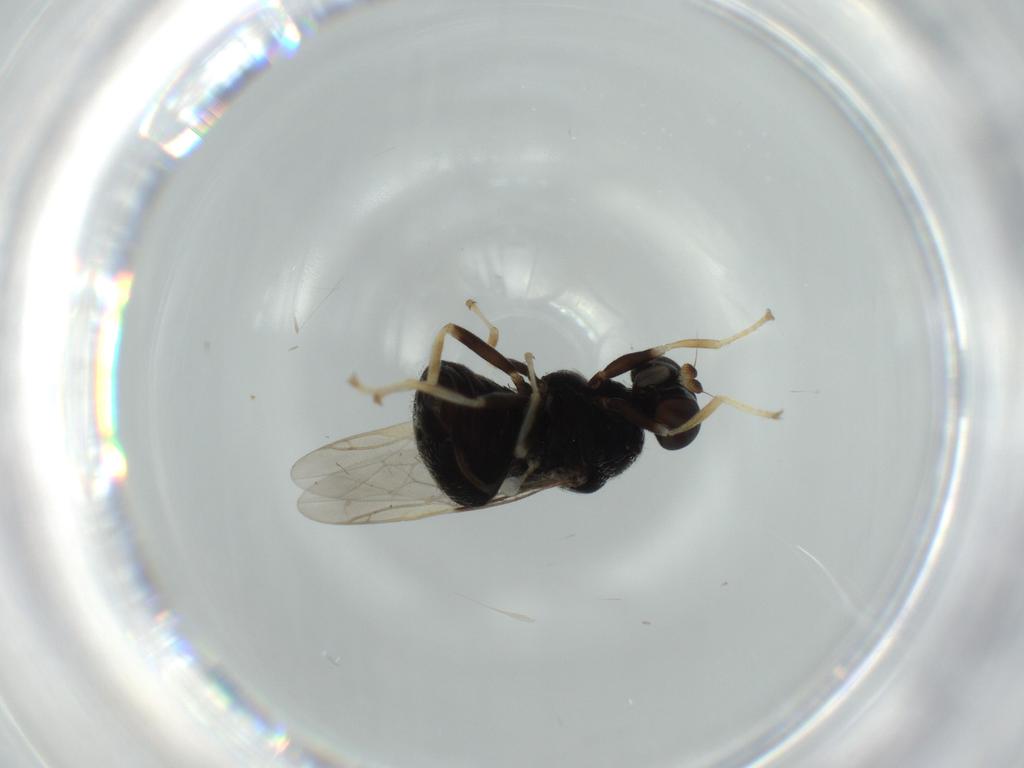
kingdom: Animalia
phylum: Arthropoda
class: Insecta
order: Diptera
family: Stratiomyidae
